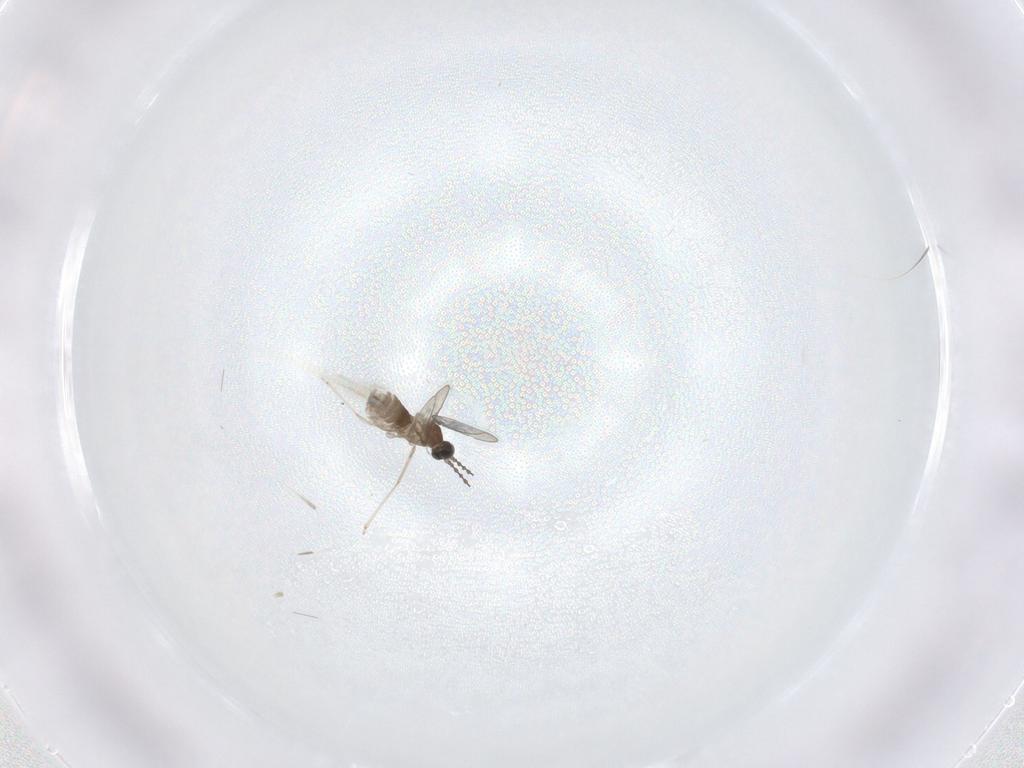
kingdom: Animalia
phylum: Arthropoda
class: Insecta
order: Diptera
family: Cecidomyiidae
